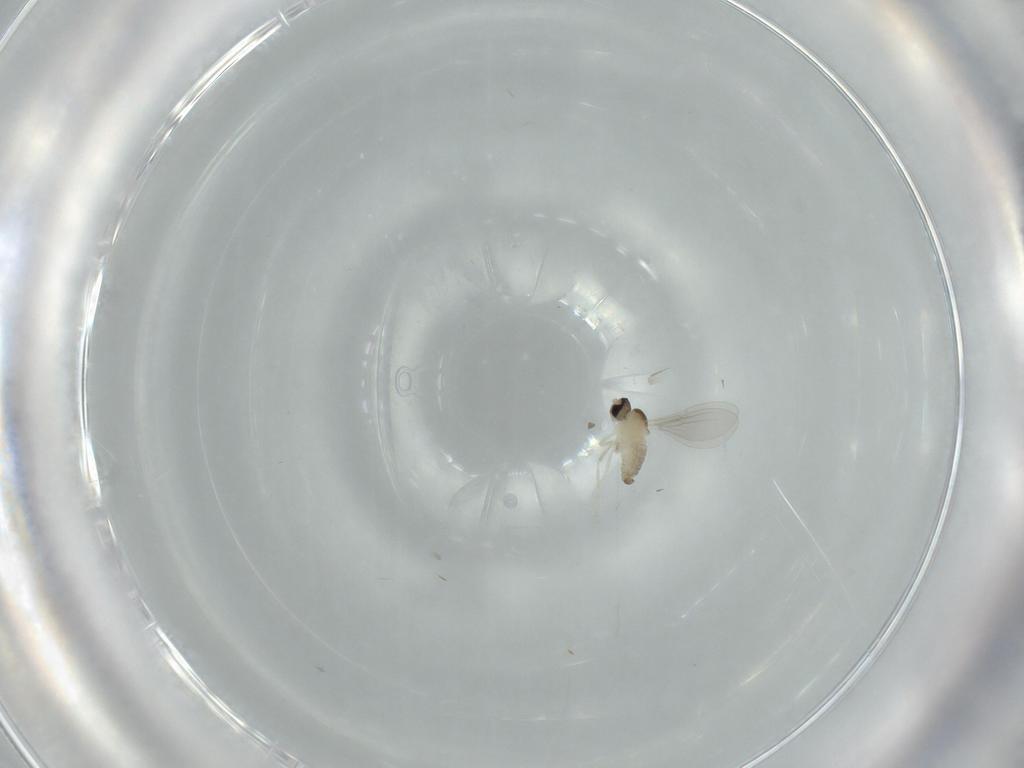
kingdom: Animalia
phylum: Arthropoda
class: Insecta
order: Diptera
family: Cecidomyiidae
